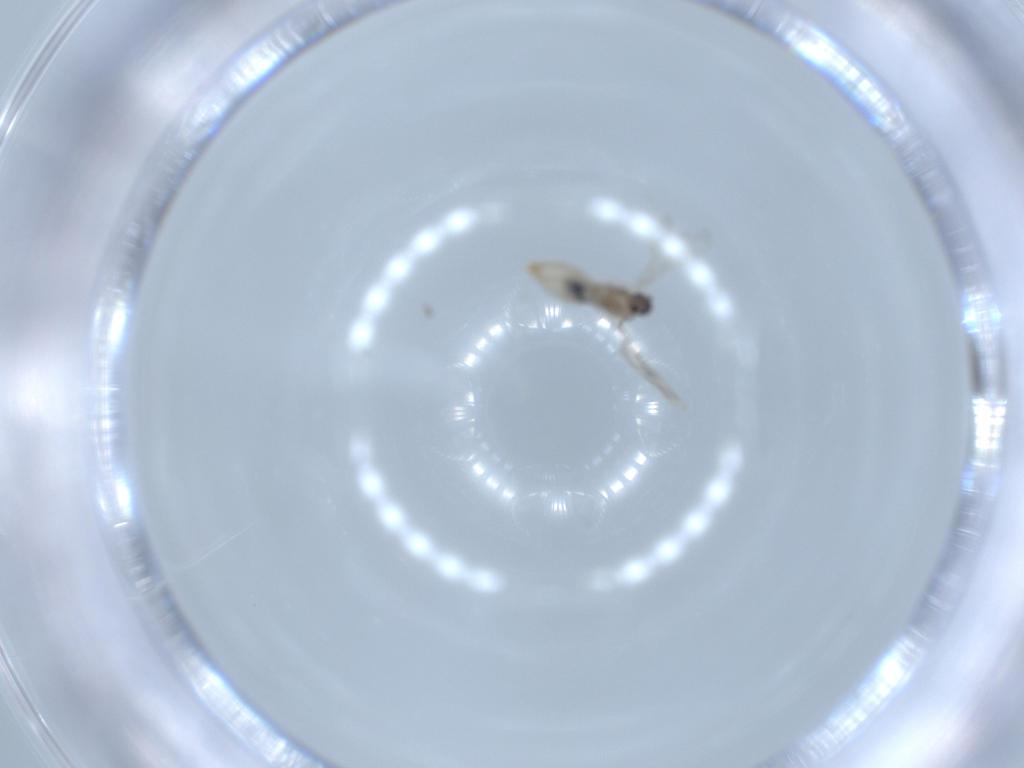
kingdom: Animalia
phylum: Arthropoda
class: Insecta
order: Diptera
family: Cecidomyiidae
